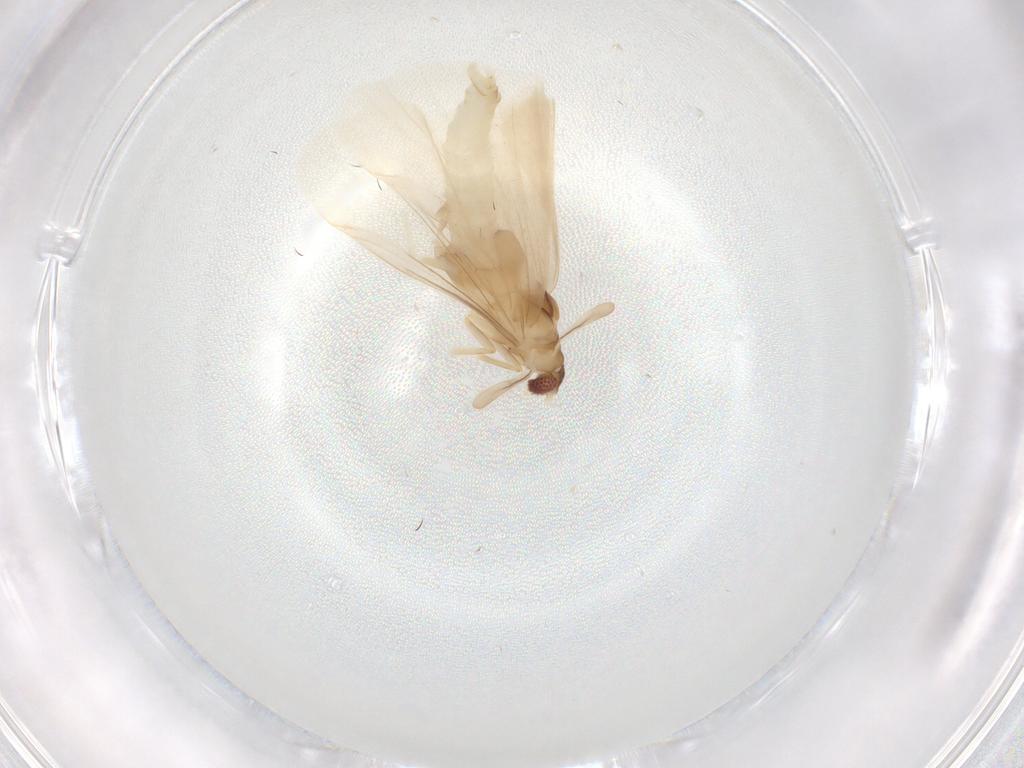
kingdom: Animalia
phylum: Arthropoda
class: Insecta
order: Strepsiptera
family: Mengenillidae
